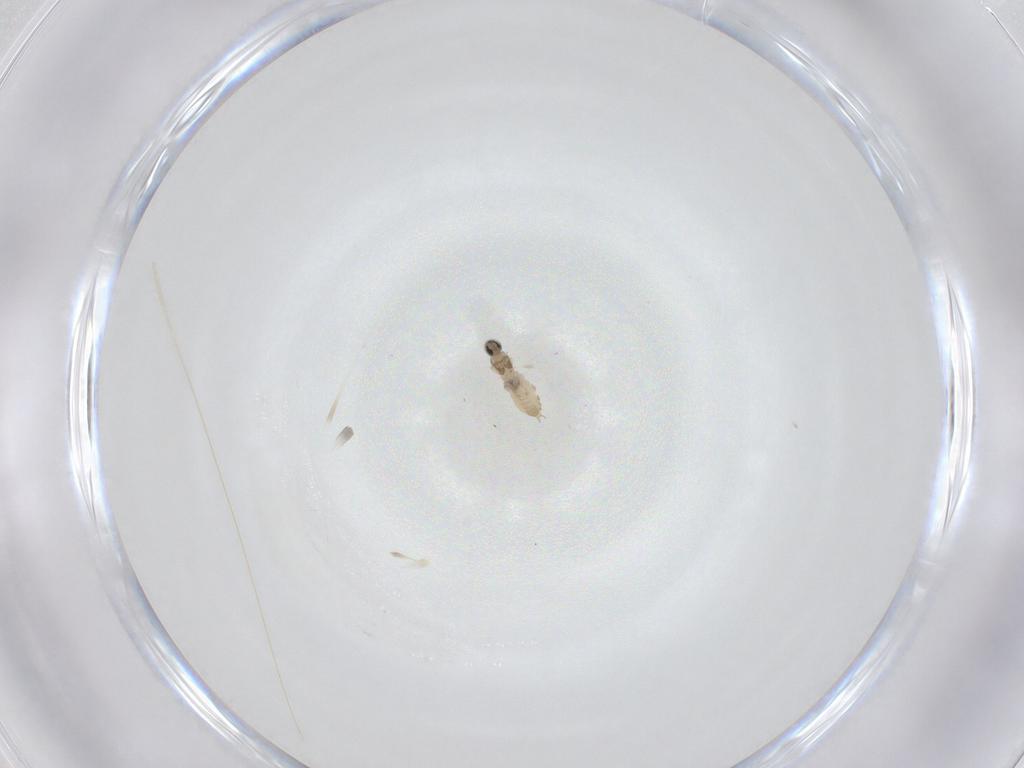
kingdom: Animalia
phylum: Arthropoda
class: Insecta
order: Diptera
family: Cecidomyiidae
